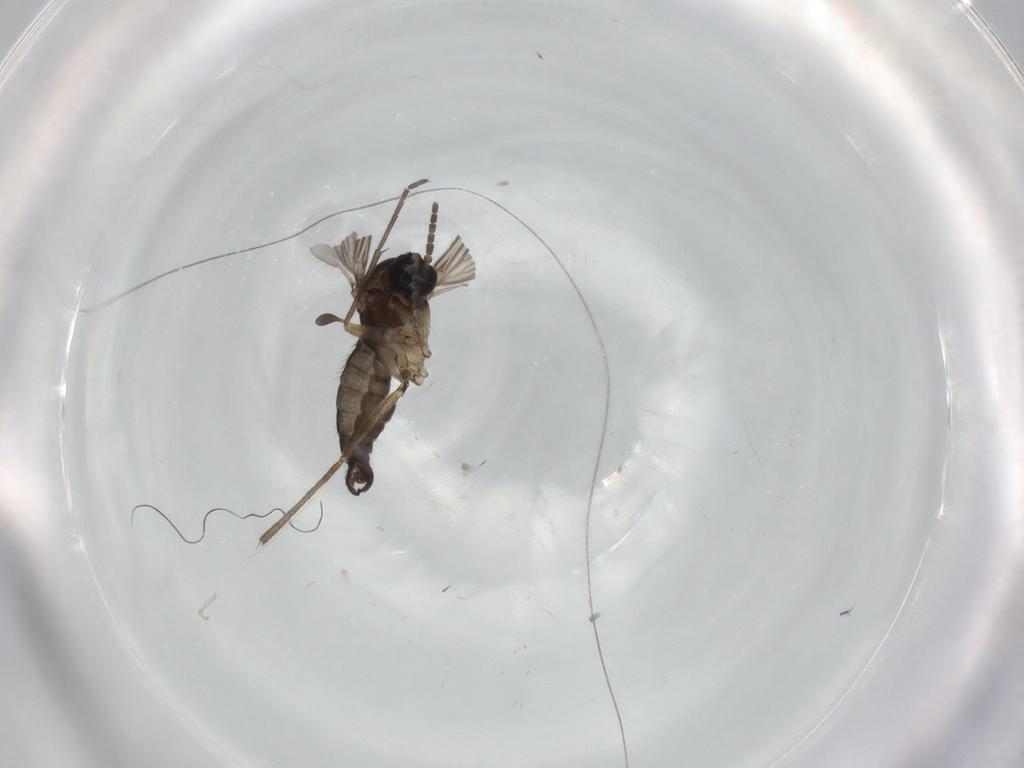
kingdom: Animalia
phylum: Arthropoda
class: Insecta
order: Diptera
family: Sciaridae
